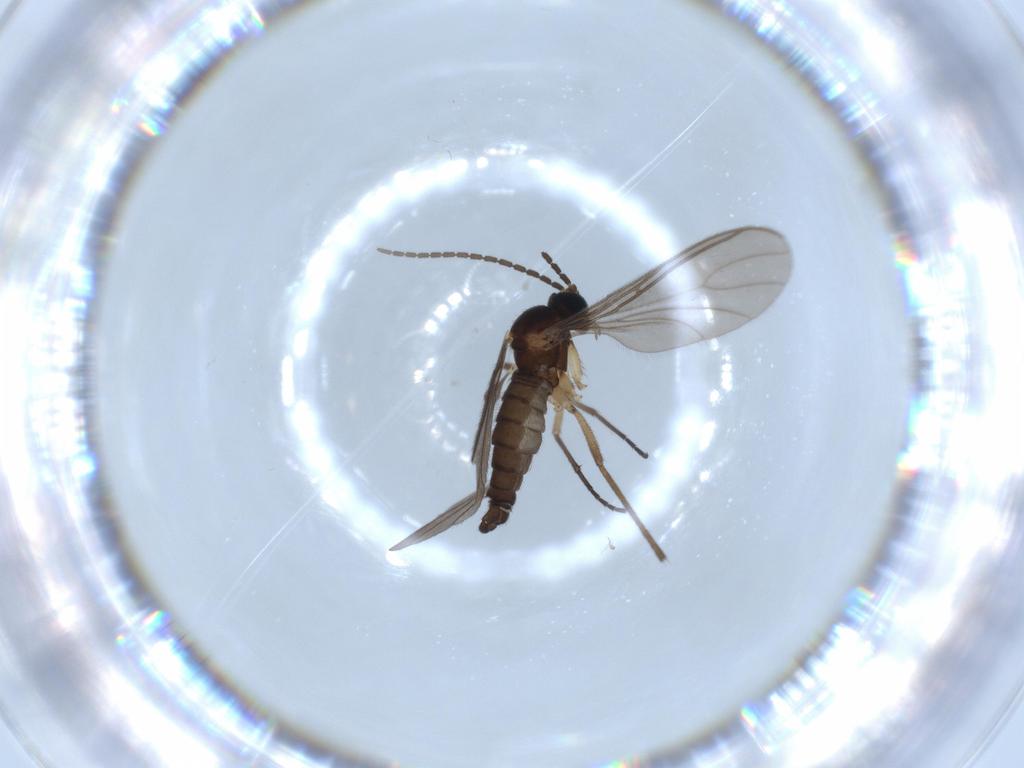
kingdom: Animalia
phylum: Arthropoda
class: Insecta
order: Diptera
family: Sciaridae
